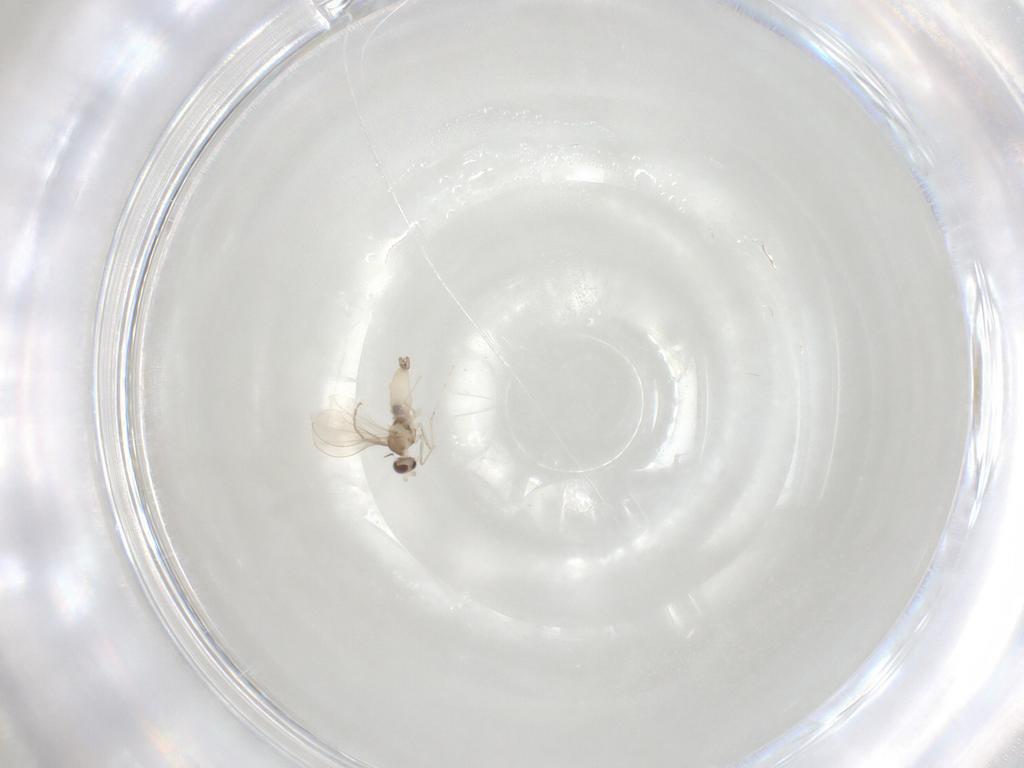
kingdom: Animalia
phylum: Arthropoda
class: Insecta
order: Diptera
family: Cecidomyiidae
